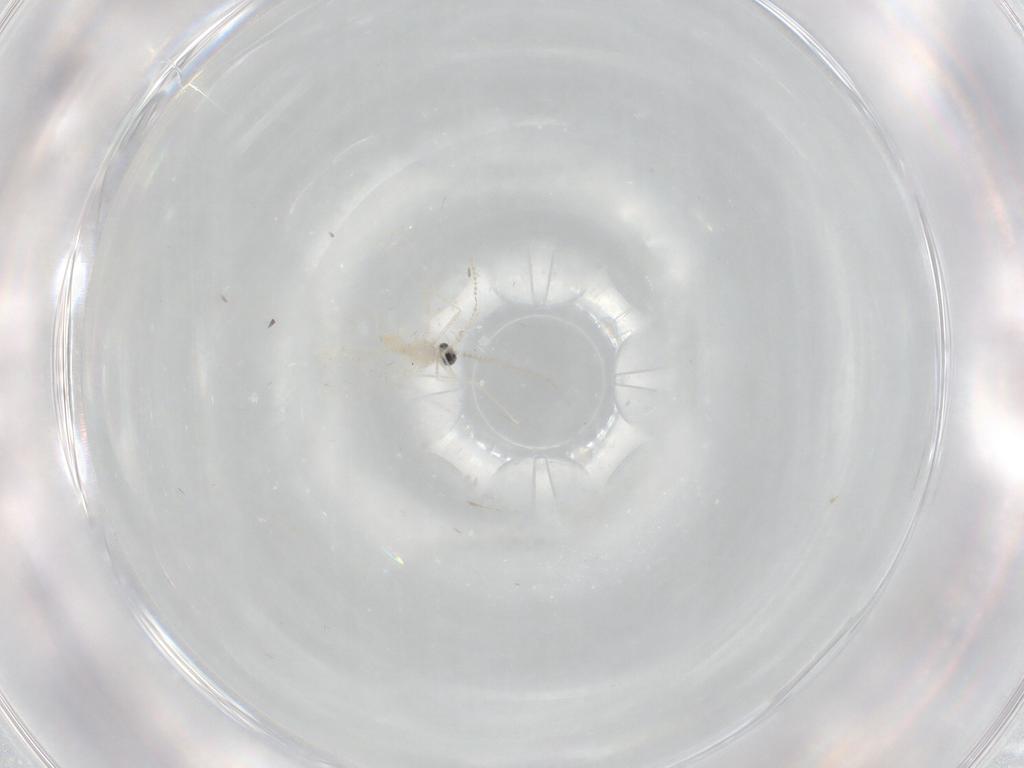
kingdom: Animalia
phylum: Arthropoda
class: Insecta
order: Diptera
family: Cecidomyiidae
